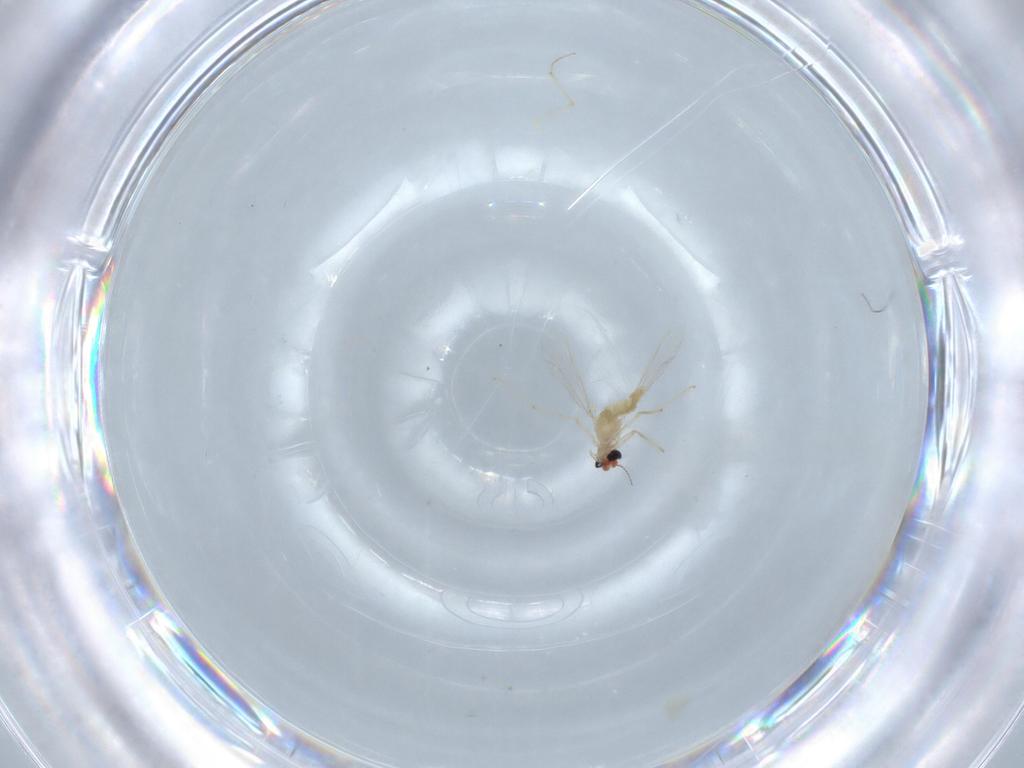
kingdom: Animalia
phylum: Arthropoda
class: Insecta
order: Diptera
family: Chironomidae
